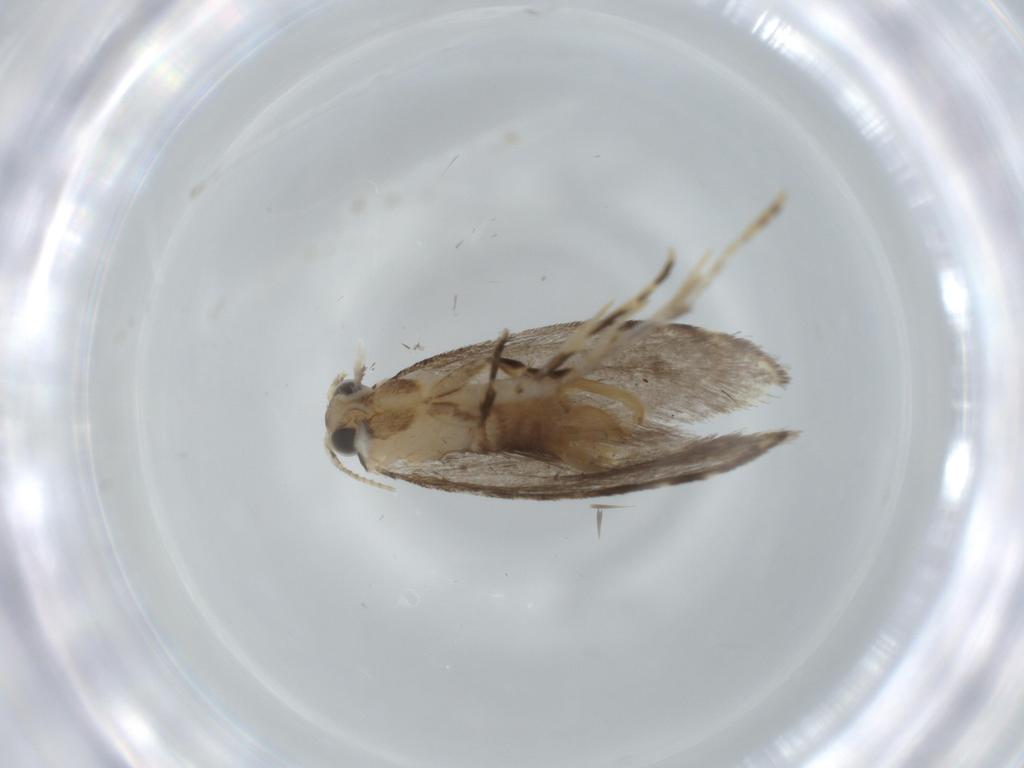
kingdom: Animalia
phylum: Arthropoda
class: Insecta
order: Lepidoptera
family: Tineidae
